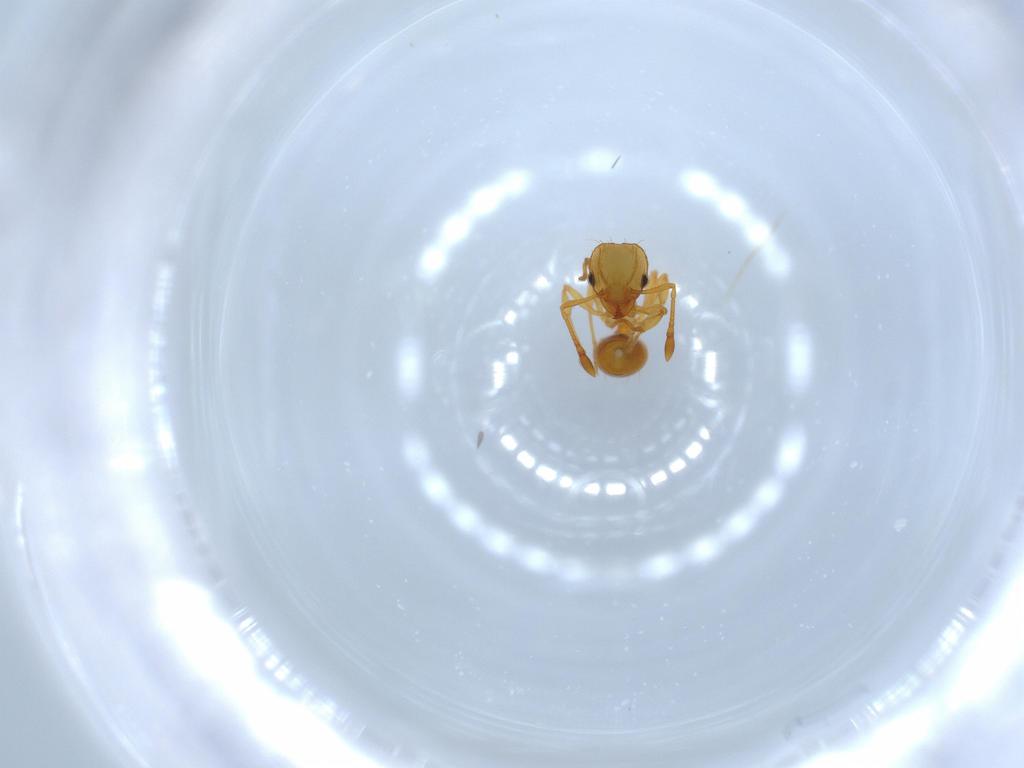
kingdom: Animalia
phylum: Arthropoda
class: Insecta
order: Hymenoptera
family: Formicidae
